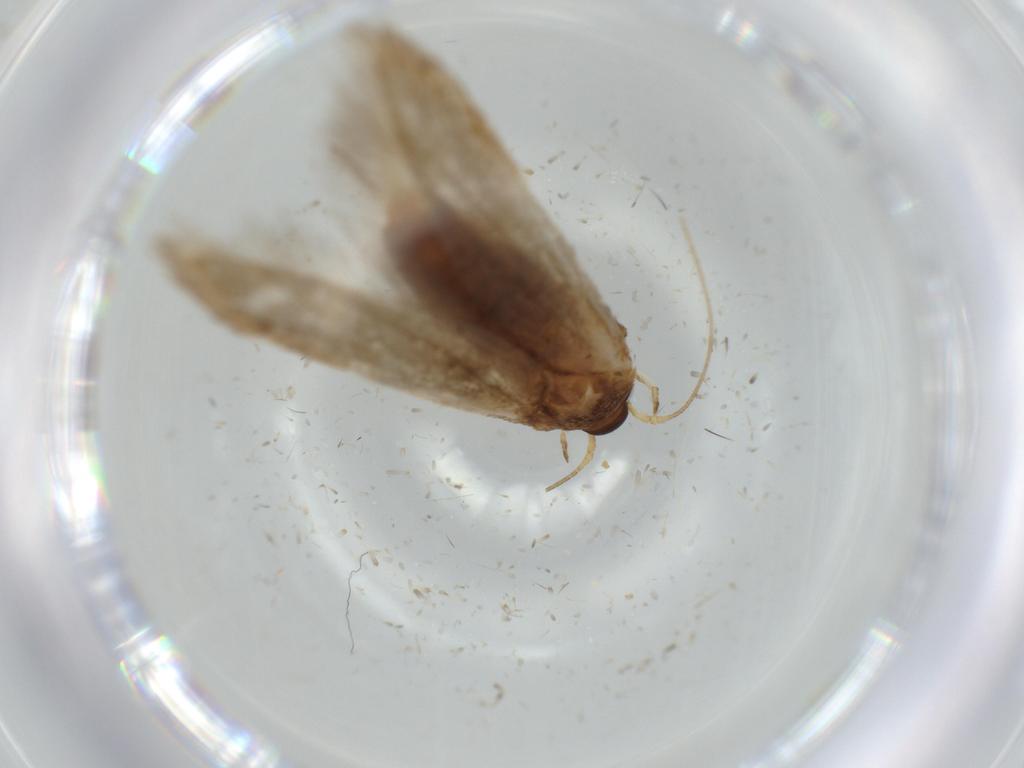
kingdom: Animalia
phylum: Arthropoda
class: Insecta
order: Lepidoptera
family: Blastobasidae
